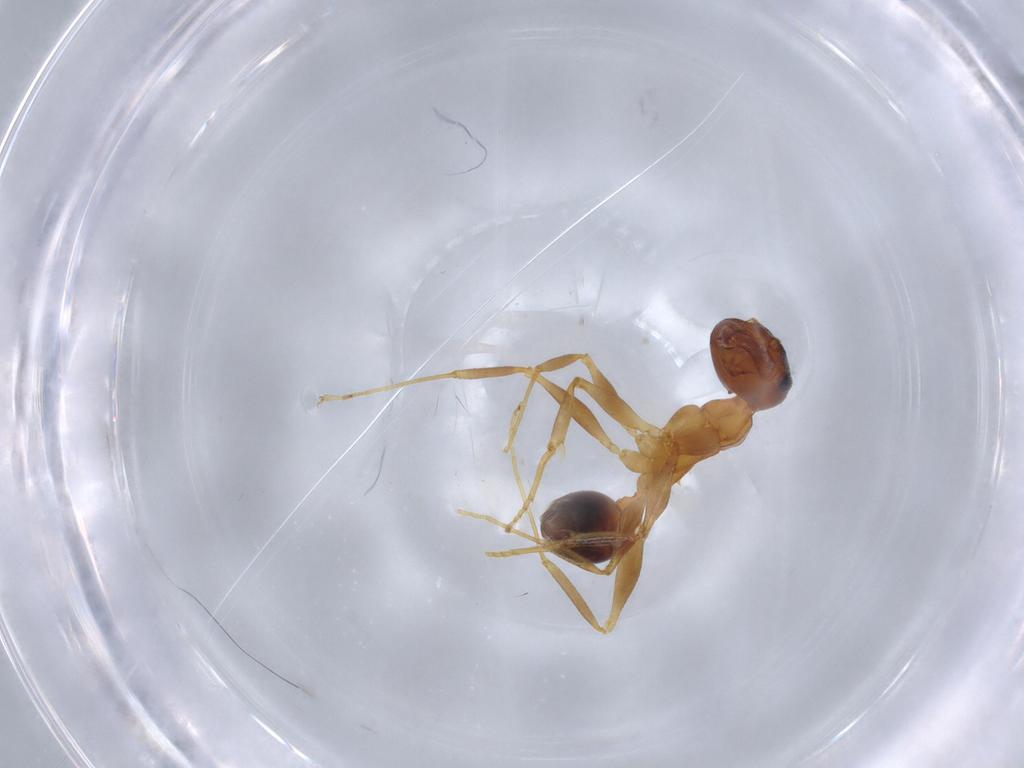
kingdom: Animalia
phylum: Arthropoda
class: Insecta
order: Hymenoptera
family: Formicidae
